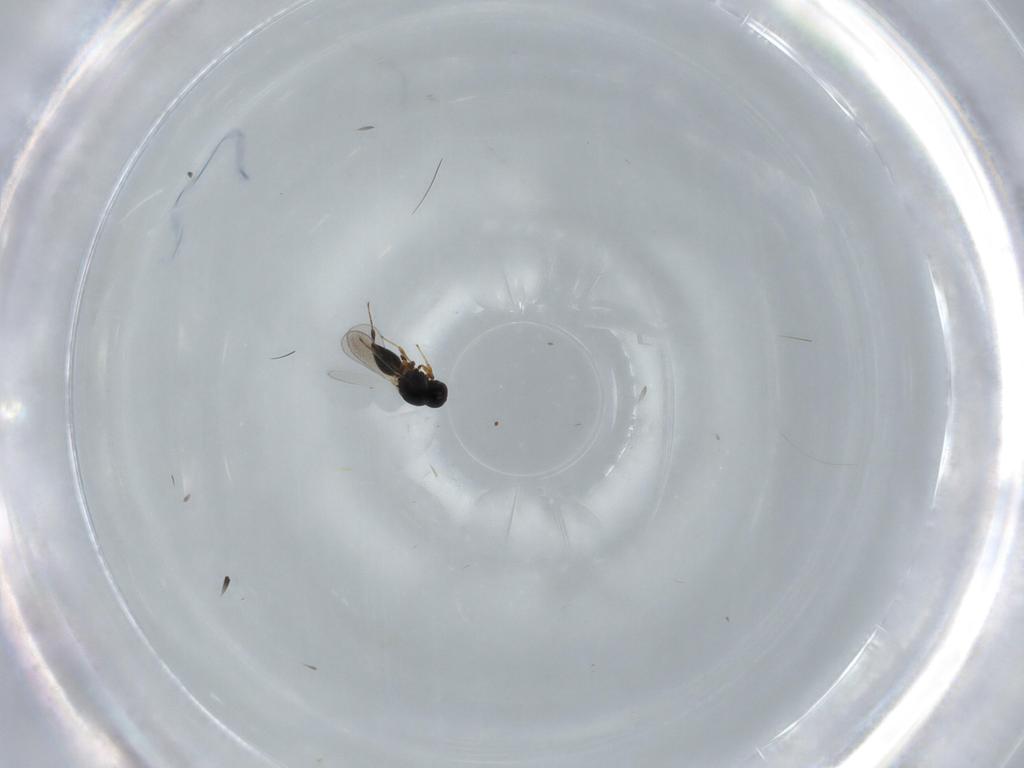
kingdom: Animalia
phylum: Arthropoda
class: Insecta
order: Hymenoptera
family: Platygastridae
